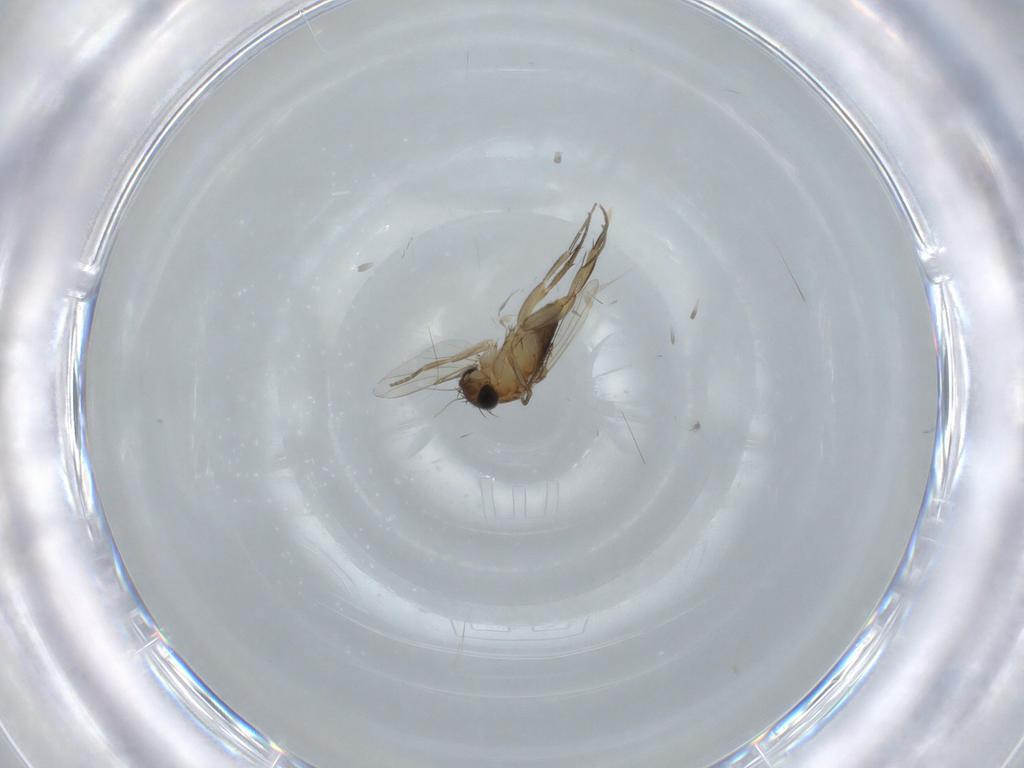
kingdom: Animalia
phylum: Arthropoda
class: Insecta
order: Diptera
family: Phoridae
